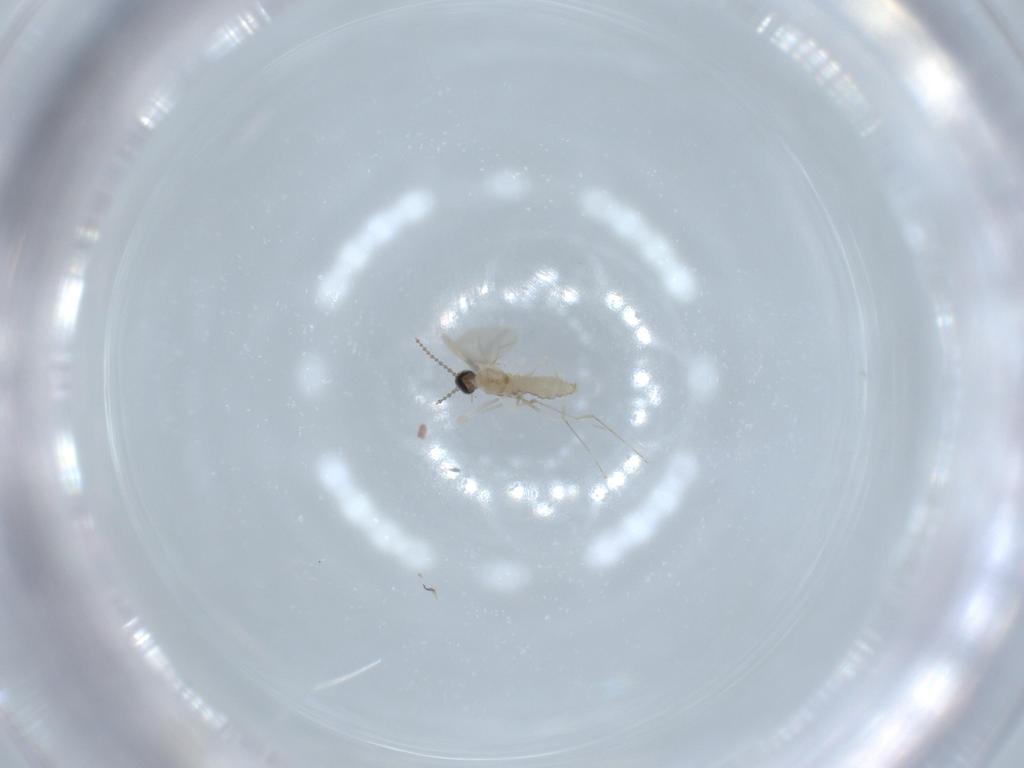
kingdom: Animalia
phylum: Arthropoda
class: Insecta
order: Diptera
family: Cecidomyiidae
